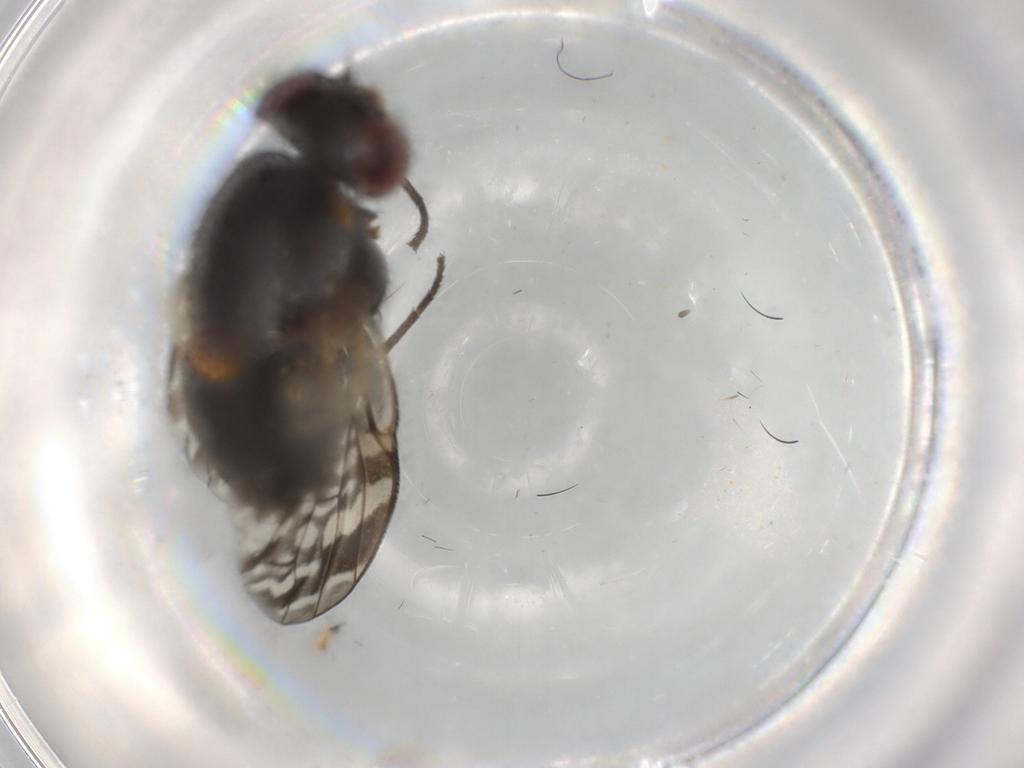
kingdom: Animalia
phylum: Arthropoda
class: Insecta
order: Diptera
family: Lauxaniidae
